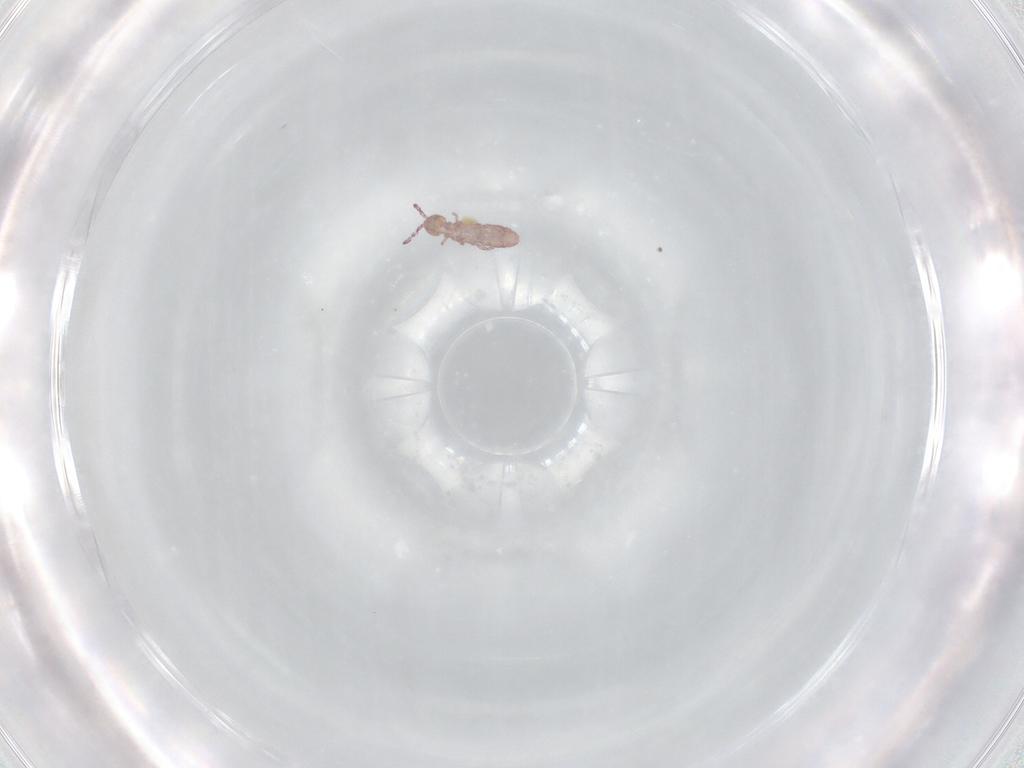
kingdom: Animalia
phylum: Arthropoda
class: Collembola
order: Entomobryomorpha
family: Isotomidae
